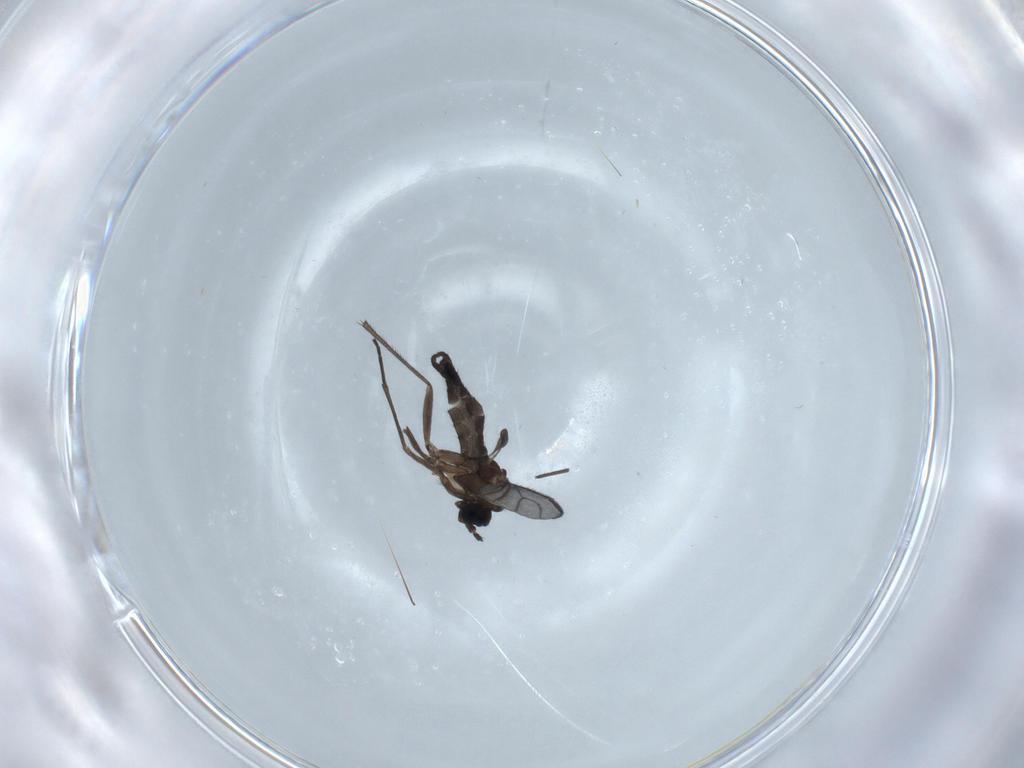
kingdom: Animalia
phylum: Arthropoda
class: Insecta
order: Diptera
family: Sciaridae
